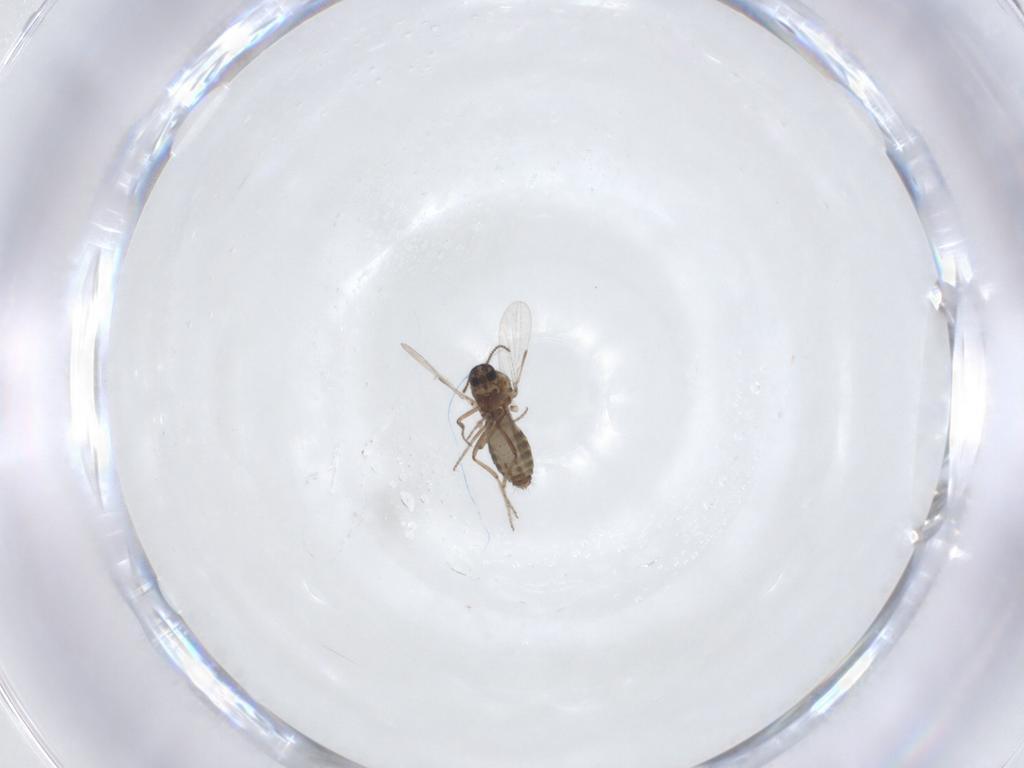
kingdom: Animalia
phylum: Arthropoda
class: Insecta
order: Diptera
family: Ceratopogonidae
